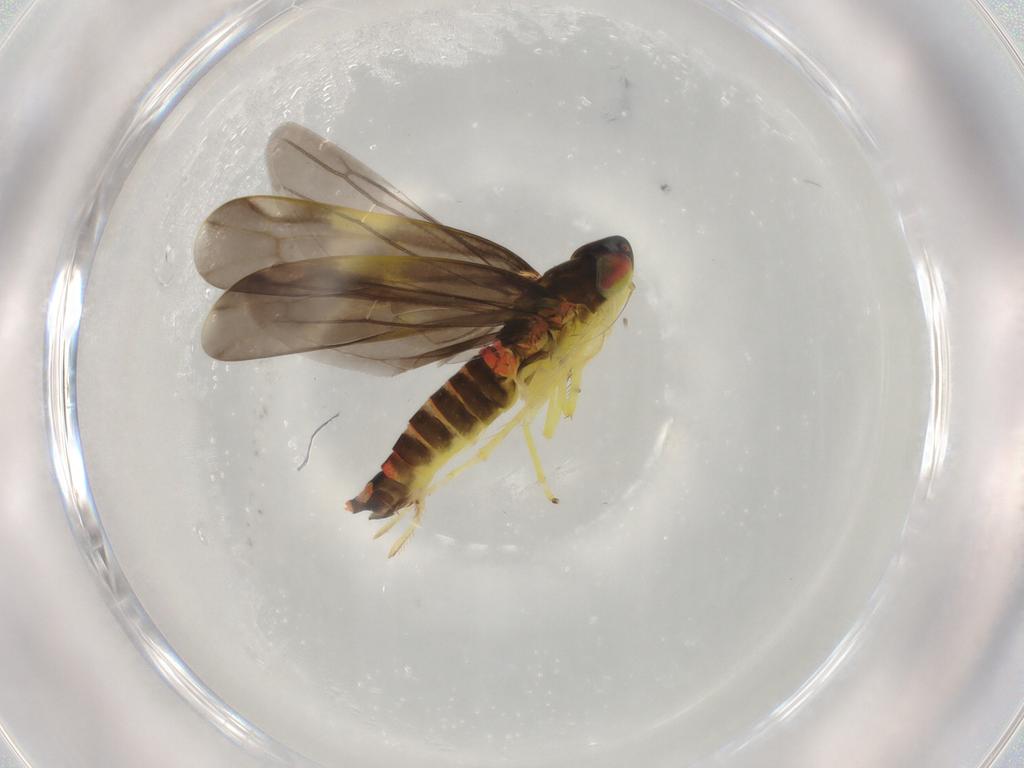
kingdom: Animalia
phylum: Arthropoda
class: Insecta
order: Hemiptera
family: Cicadellidae
